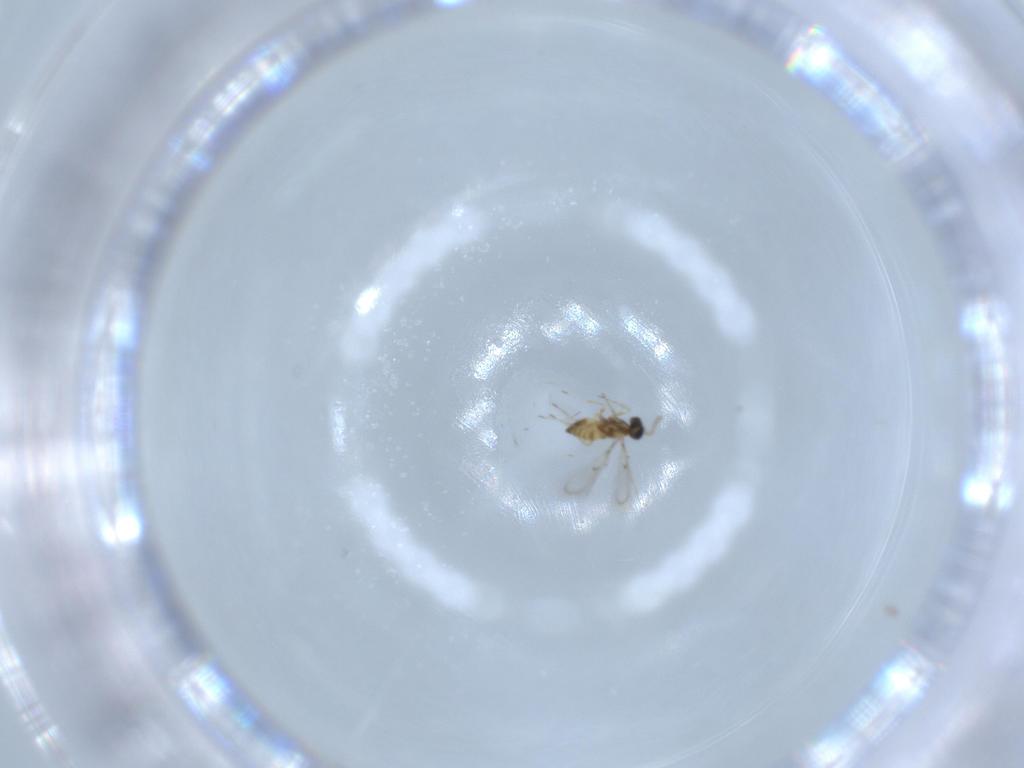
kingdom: Animalia
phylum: Arthropoda
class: Insecta
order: Hymenoptera
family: Trichogrammatidae
